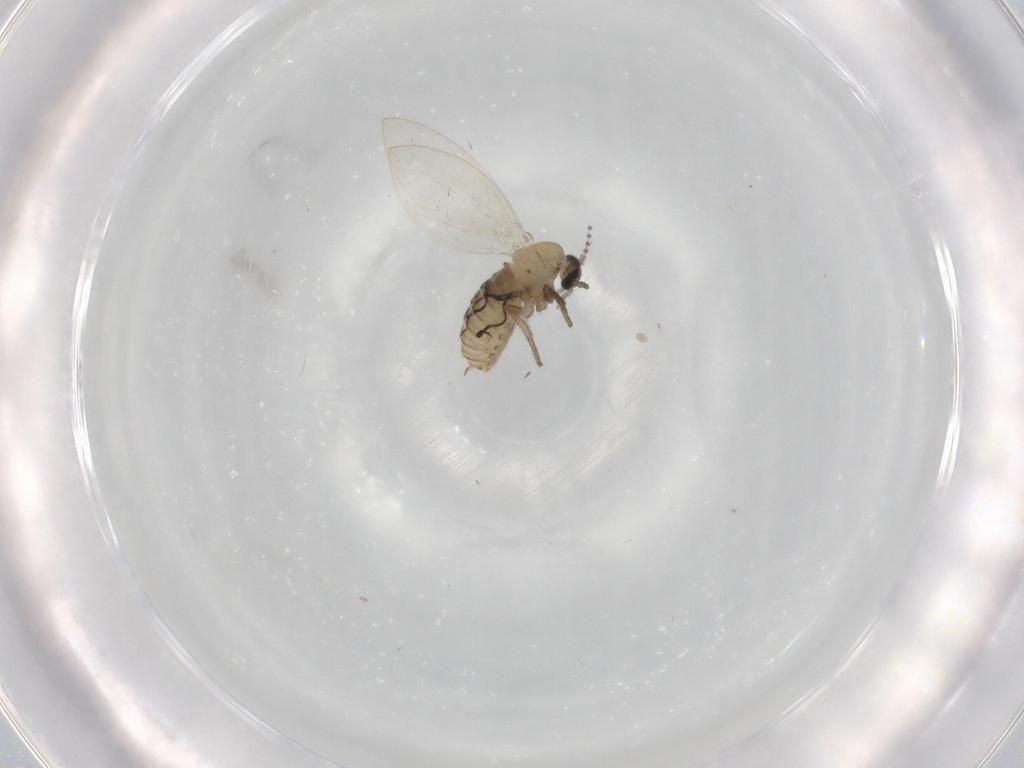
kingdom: Animalia
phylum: Arthropoda
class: Insecta
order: Diptera
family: Psychodidae
